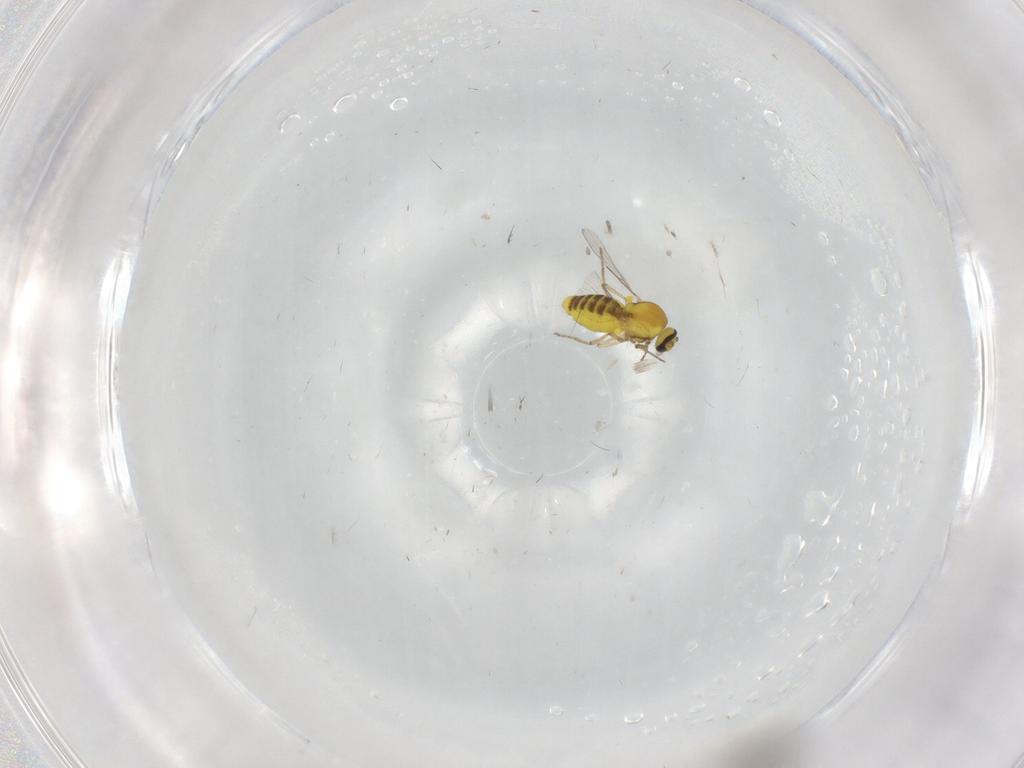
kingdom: Animalia
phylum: Arthropoda
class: Insecta
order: Diptera
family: Ceratopogonidae
